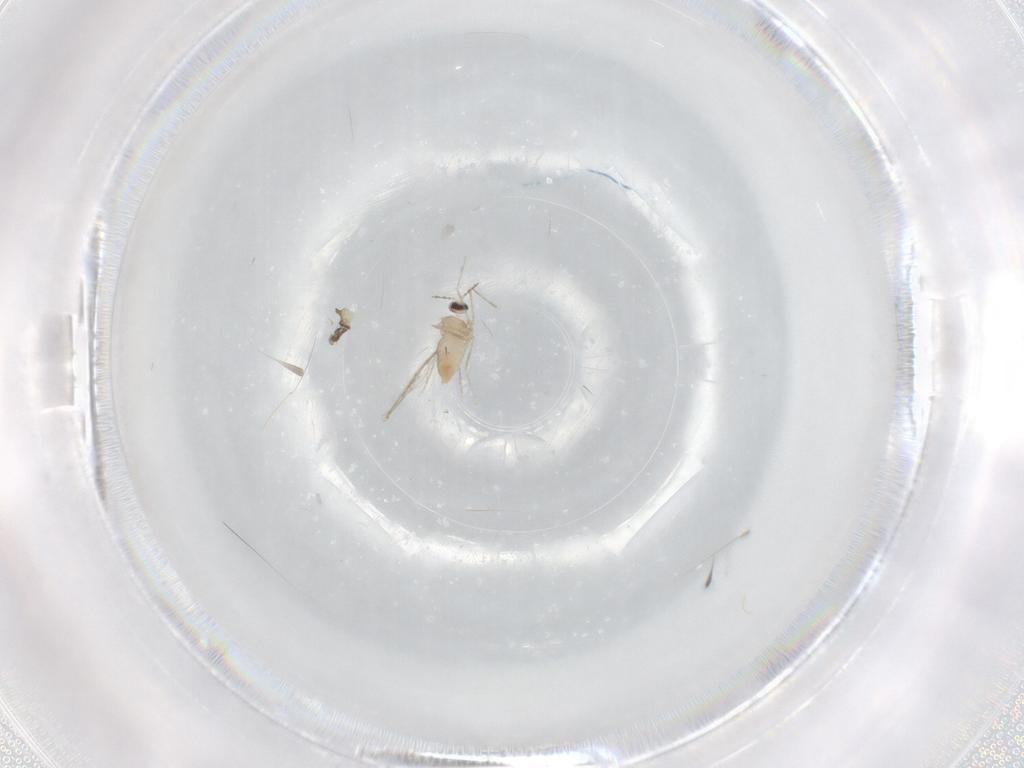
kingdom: Animalia
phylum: Arthropoda
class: Insecta
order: Diptera
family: Cecidomyiidae
